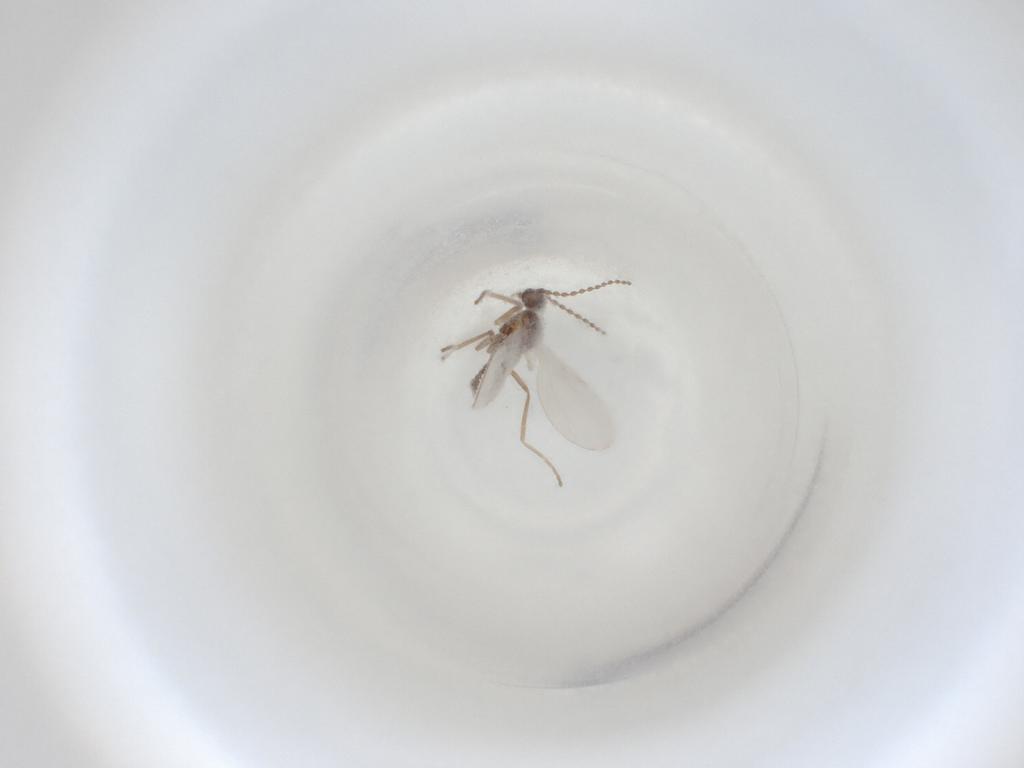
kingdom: Animalia
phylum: Arthropoda
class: Insecta
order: Diptera
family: Cecidomyiidae
